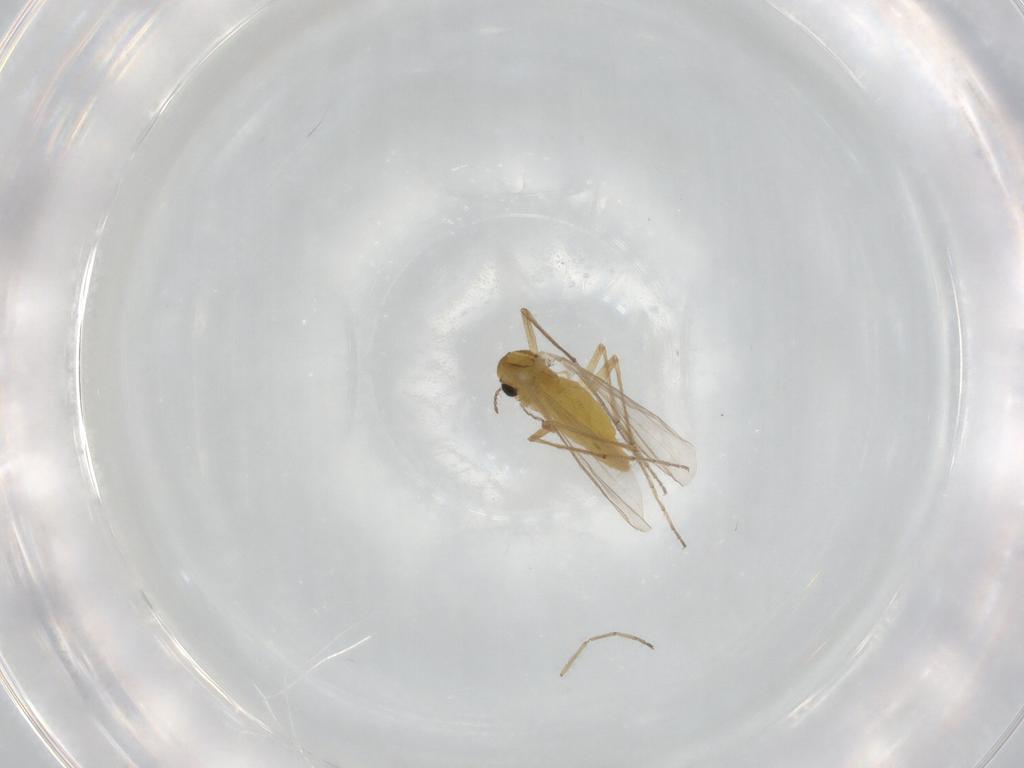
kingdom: Animalia
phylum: Arthropoda
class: Insecta
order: Diptera
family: Chironomidae
